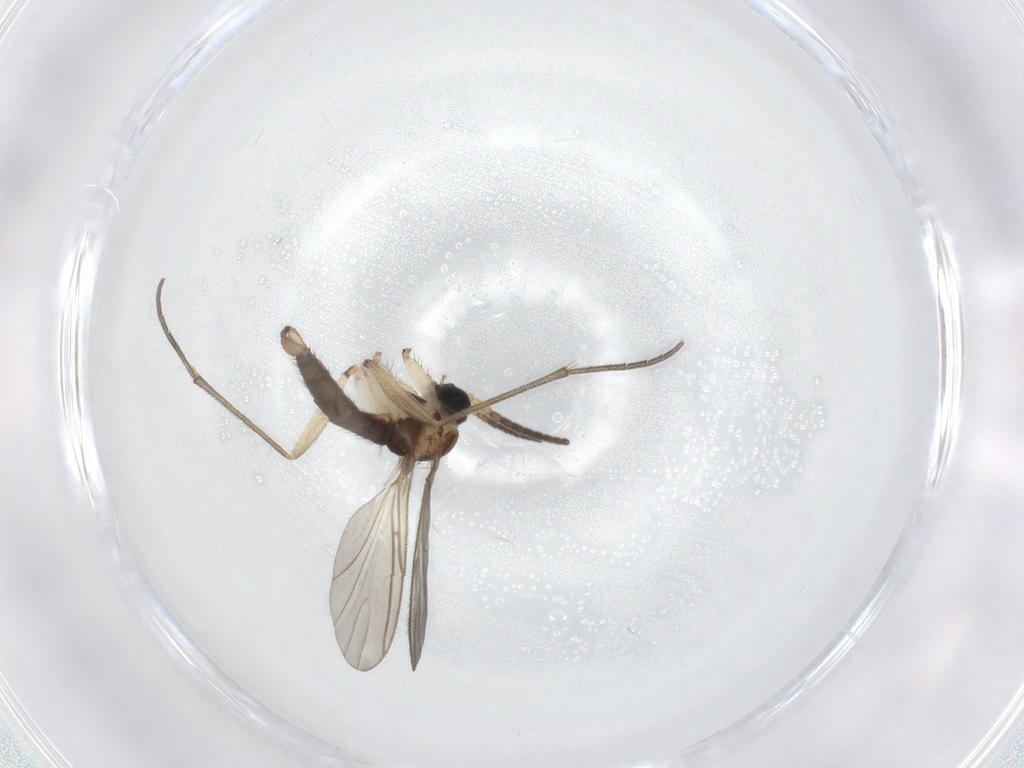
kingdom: Animalia
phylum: Arthropoda
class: Insecta
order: Diptera
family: Sciaridae
